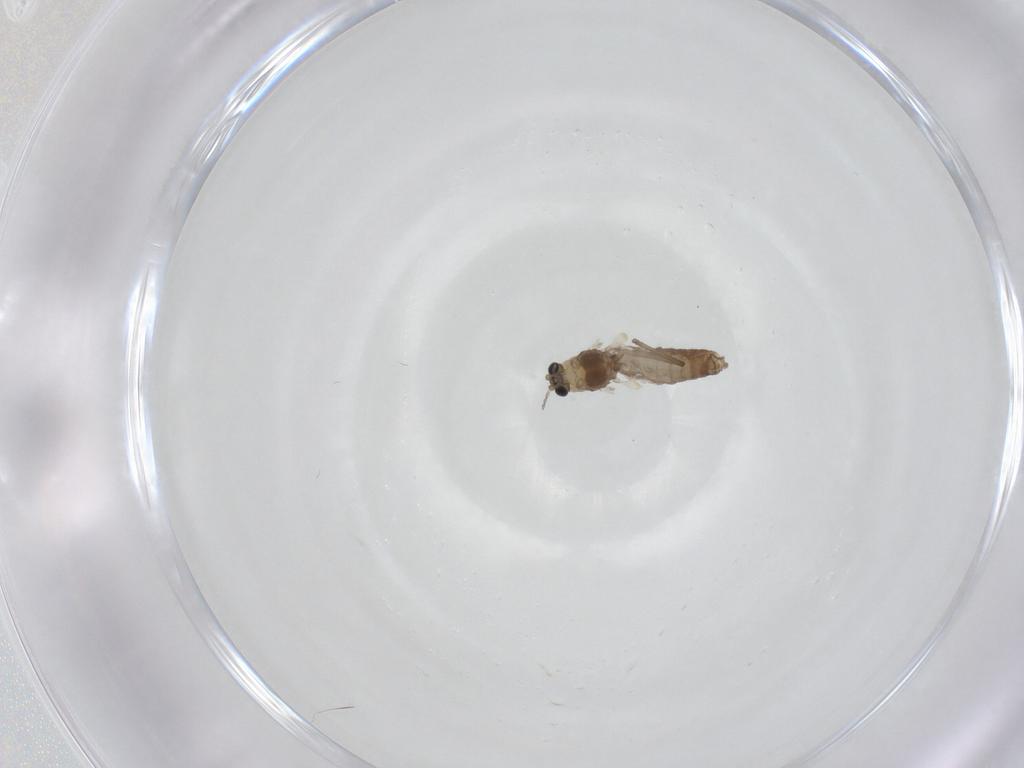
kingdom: Animalia
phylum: Arthropoda
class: Insecta
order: Diptera
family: Chironomidae
